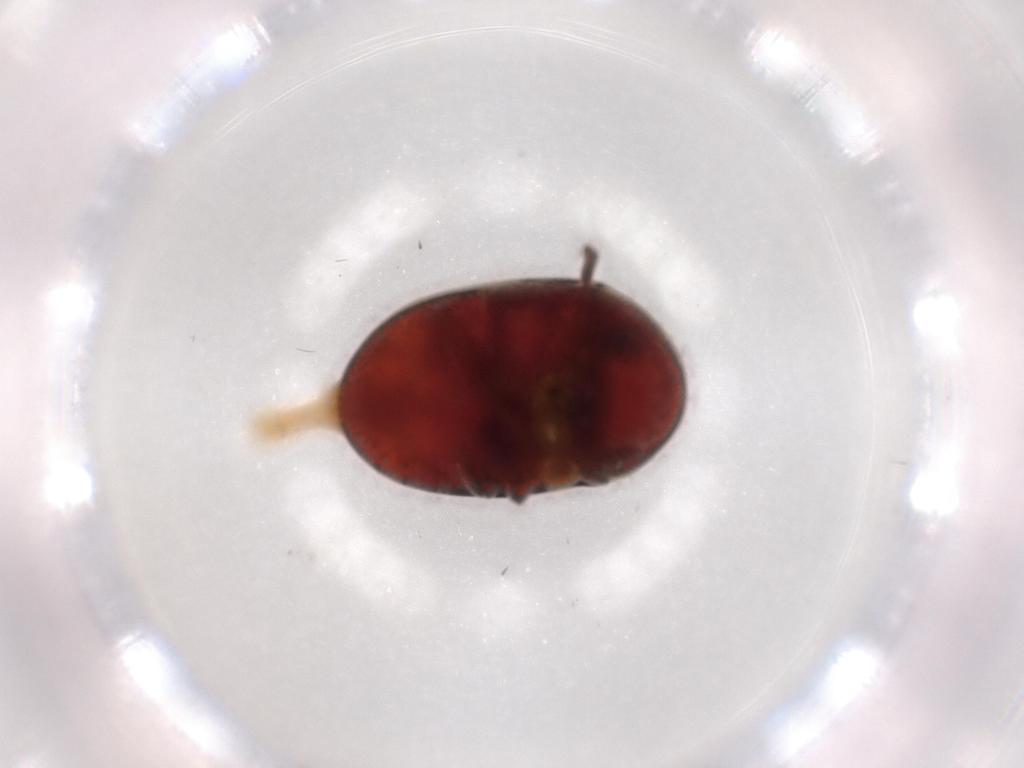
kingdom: Animalia
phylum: Arthropoda
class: Insecta
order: Coleoptera
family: Ptinidae
